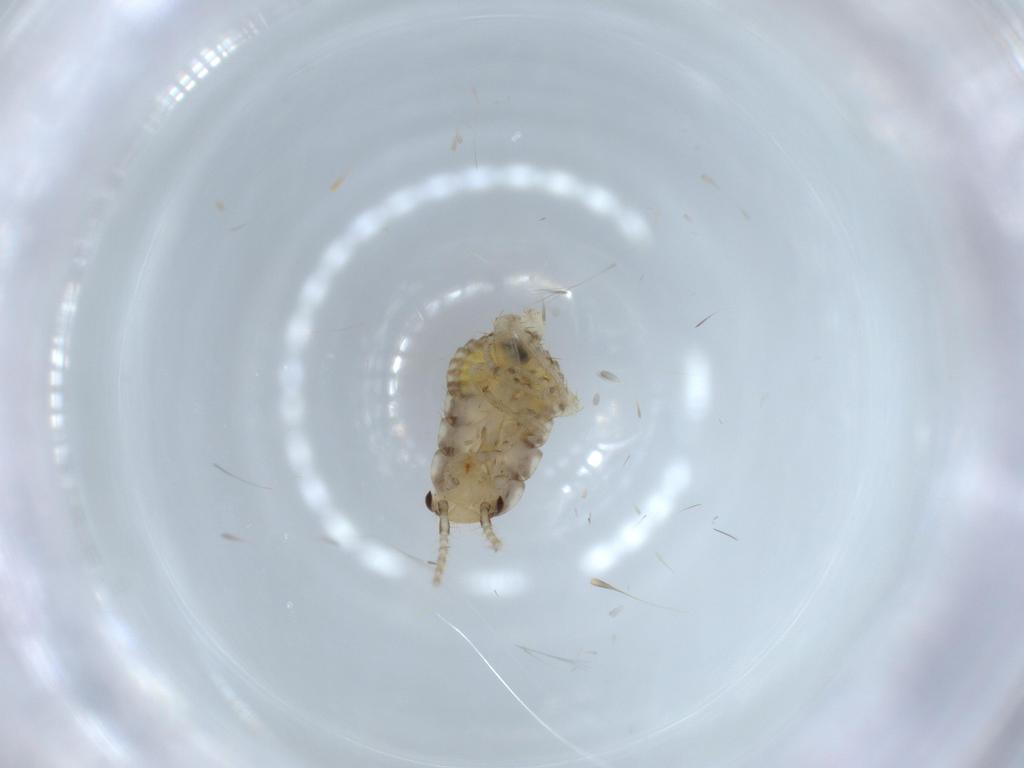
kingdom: Animalia
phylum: Arthropoda
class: Insecta
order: Blattodea
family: Ectobiidae
